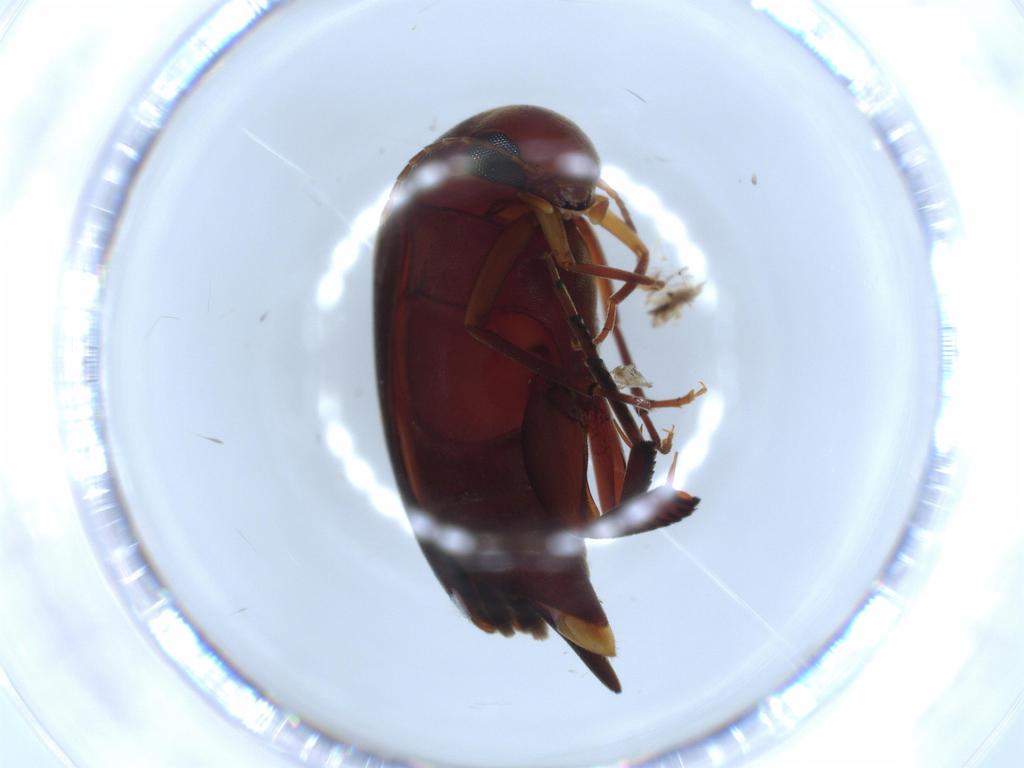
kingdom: Animalia
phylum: Arthropoda
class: Insecta
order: Coleoptera
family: Mordellidae
